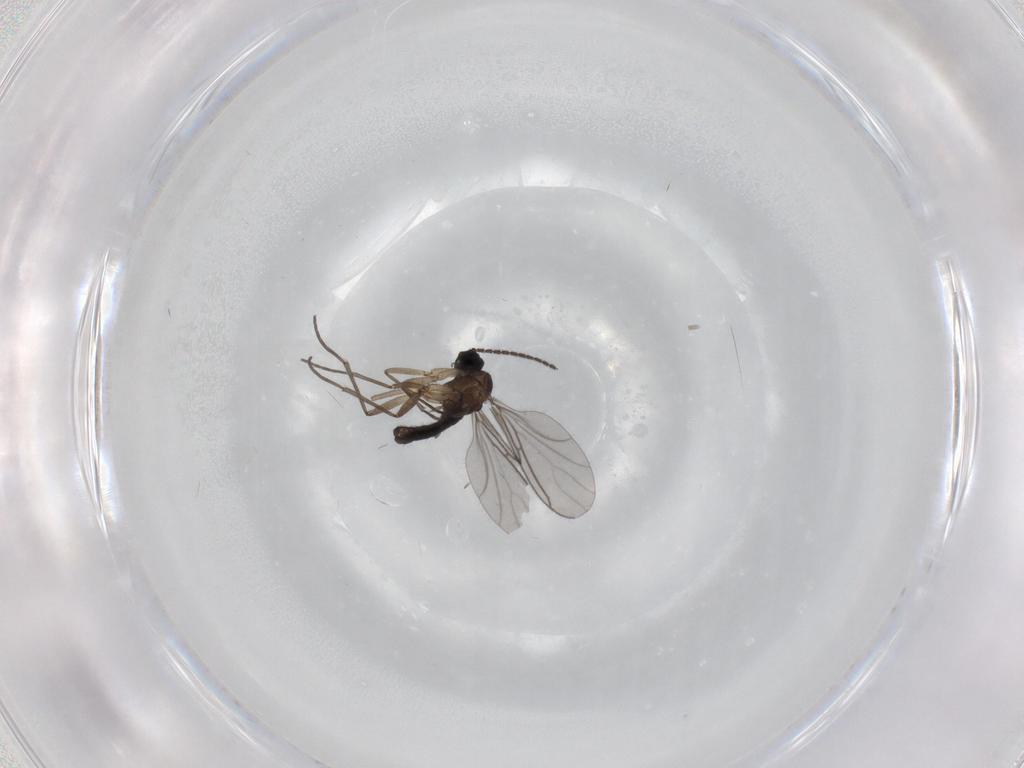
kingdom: Animalia
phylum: Arthropoda
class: Insecta
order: Diptera
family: Sciaridae
